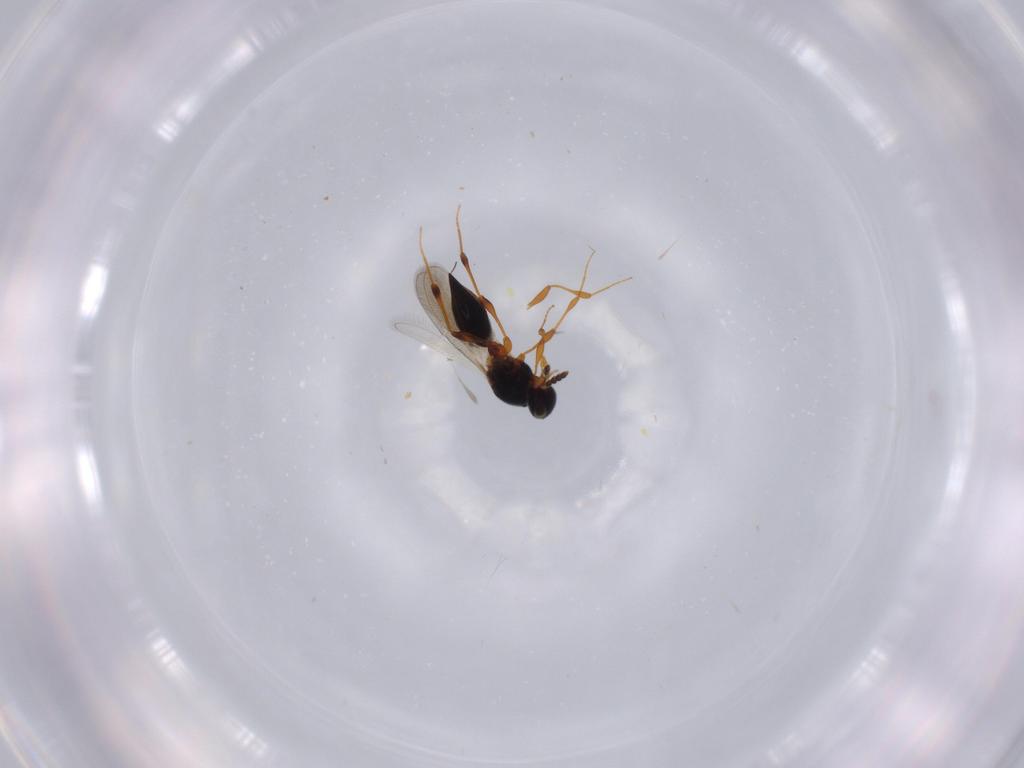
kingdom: Animalia
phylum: Arthropoda
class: Insecta
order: Hymenoptera
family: Platygastridae
